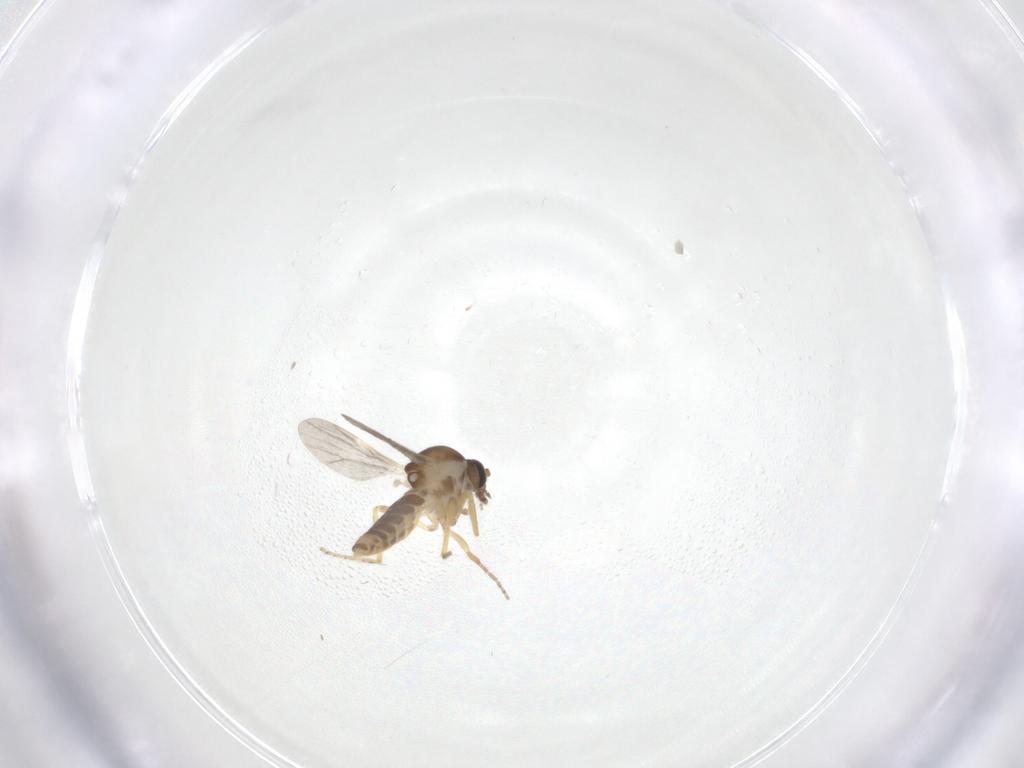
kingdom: Animalia
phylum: Arthropoda
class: Insecta
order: Diptera
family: Ceratopogonidae
